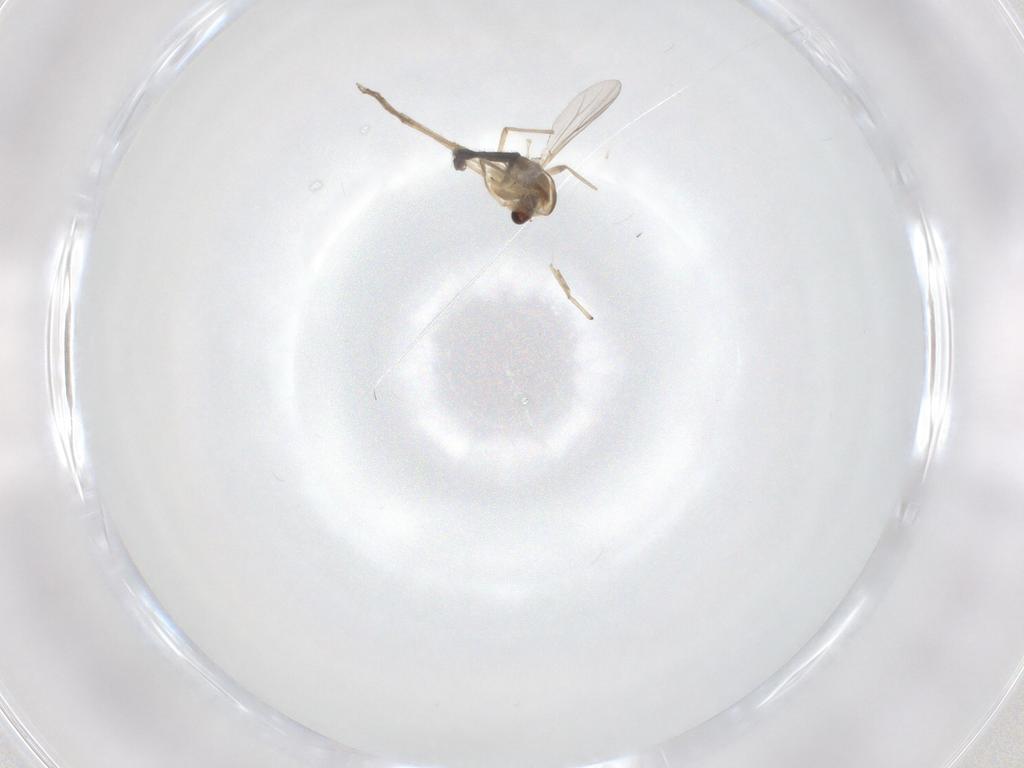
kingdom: Animalia
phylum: Arthropoda
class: Insecta
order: Diptera
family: Chironomidae
